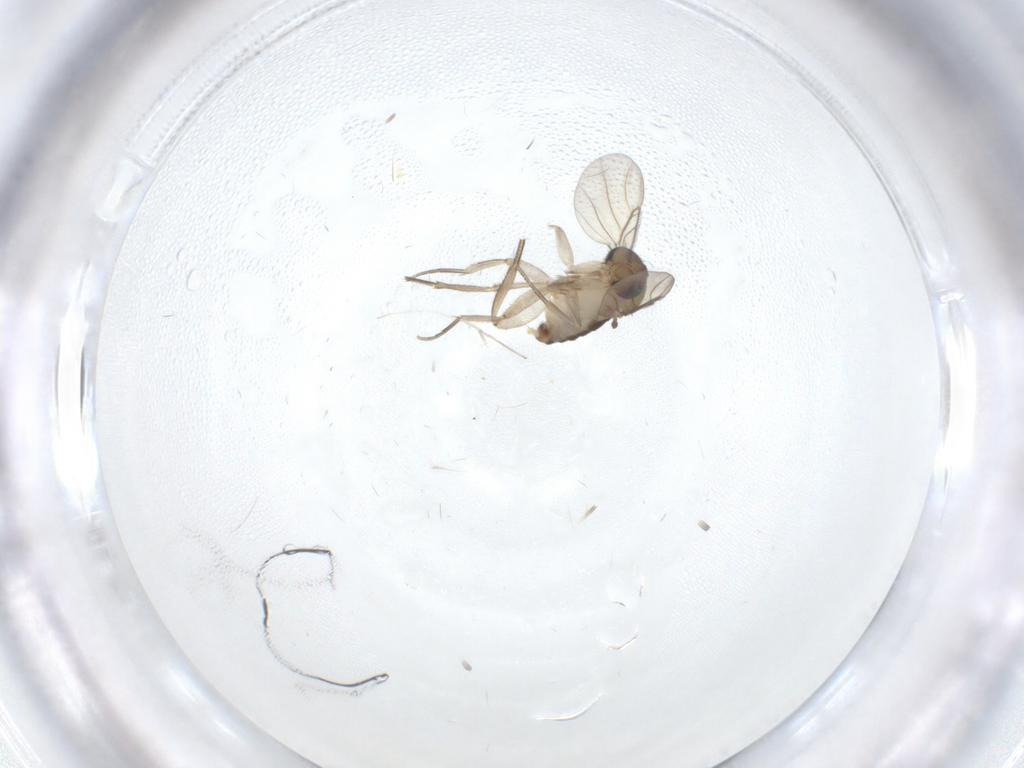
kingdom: Animalia
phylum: Arthropoda
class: Insecta
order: Diptera
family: Phoridae
